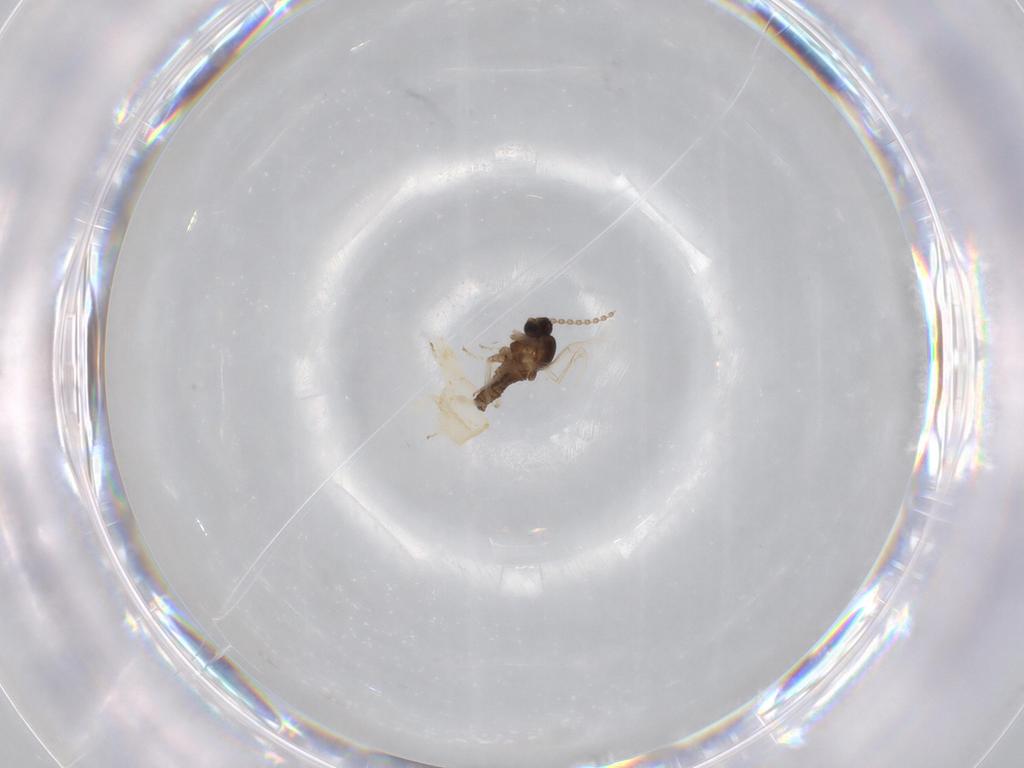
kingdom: Animalia
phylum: Arthropoda
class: Insecta
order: Diptera
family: Cecidomyiidae
